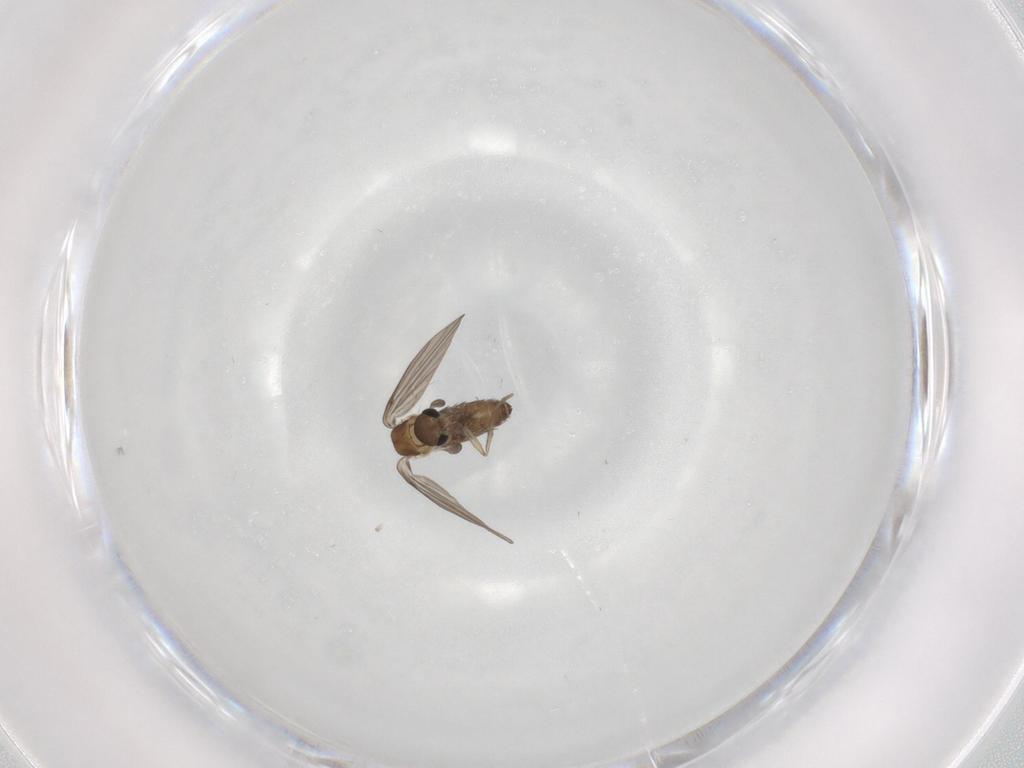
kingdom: Animalia
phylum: Arthropoda
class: Insecta
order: Diptera
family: Psychodidae
